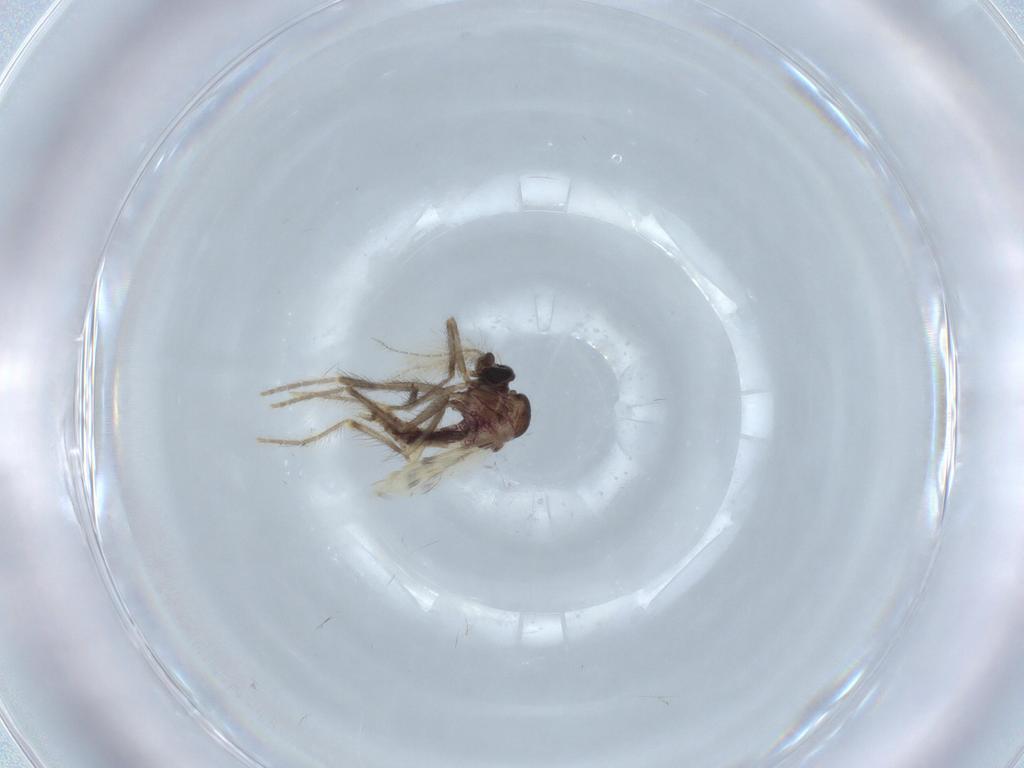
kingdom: Animalia
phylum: Arthropoda
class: Insecta
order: Diptera
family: Corethrellidae
